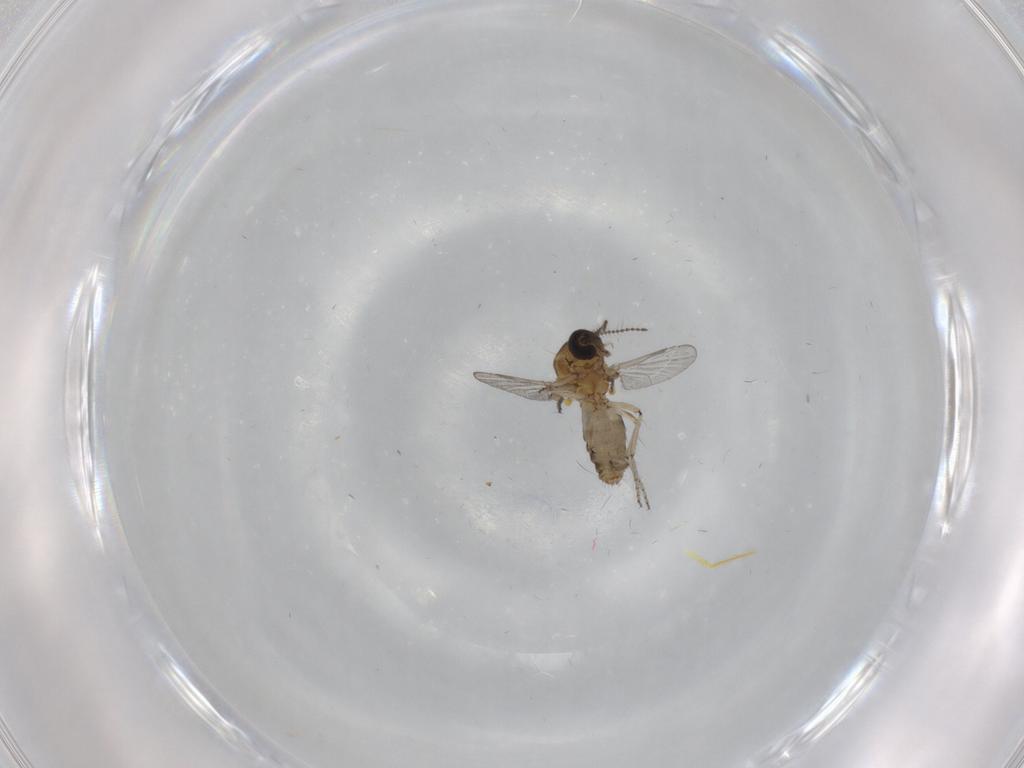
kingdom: Animalia
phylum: Arthropoda
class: Insecta
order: Diptera
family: Ceratopogonidae
